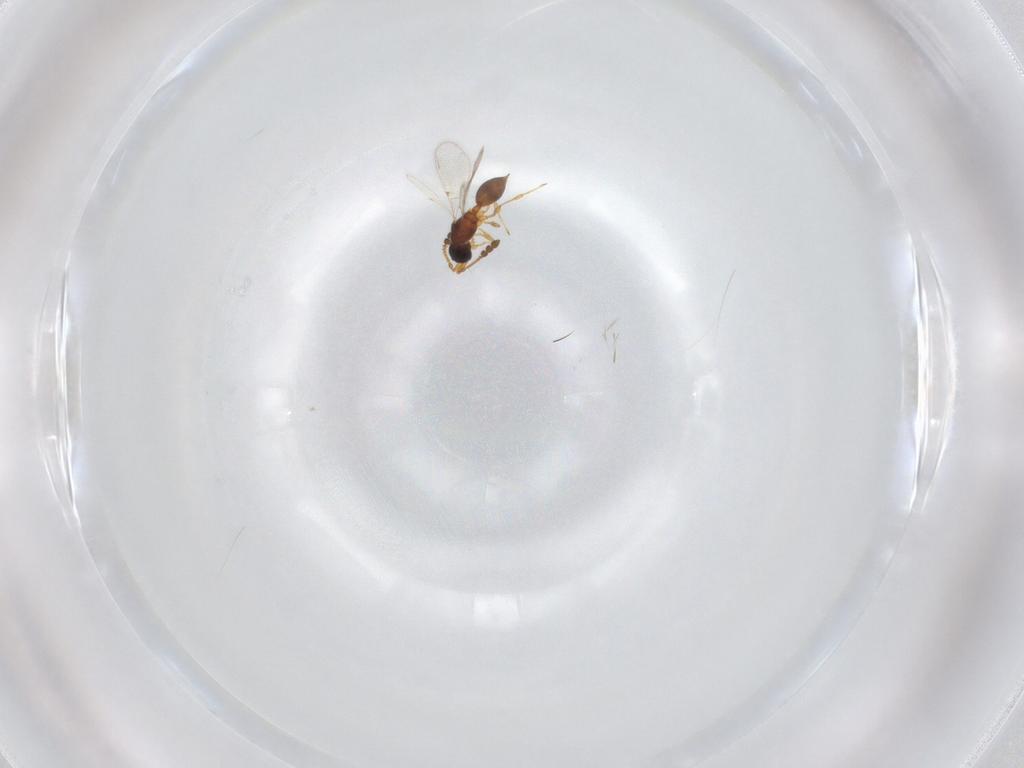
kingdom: Animalia
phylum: Arthropoda
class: Insecta
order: Hymenoptera
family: Diapriidae
